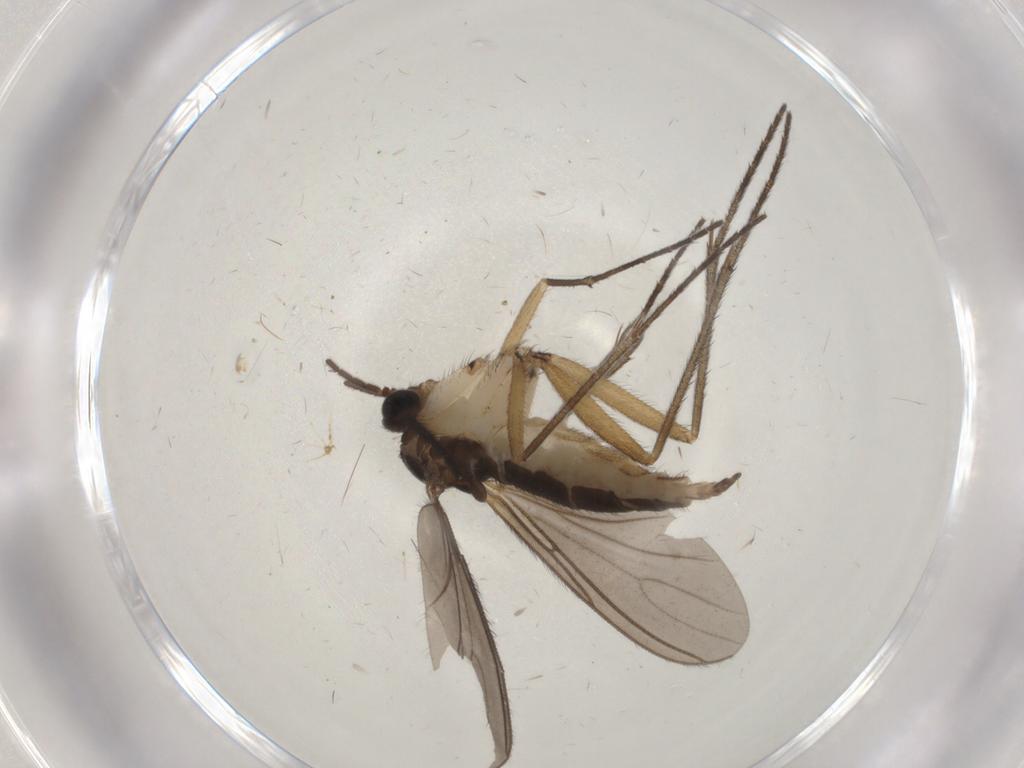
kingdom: Animalia
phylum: Arthropoda
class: Insecta
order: Diptera
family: Sciaridae
